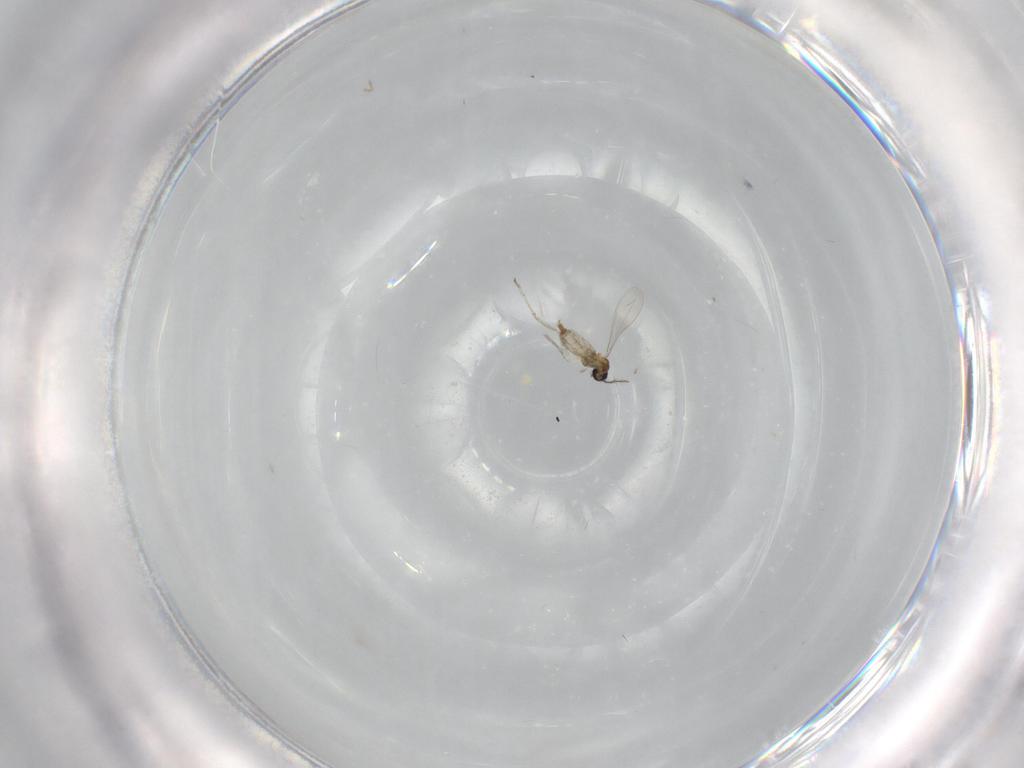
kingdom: Animalia
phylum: Arthropoda
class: Insecta
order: Diptera
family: Psychodidae
